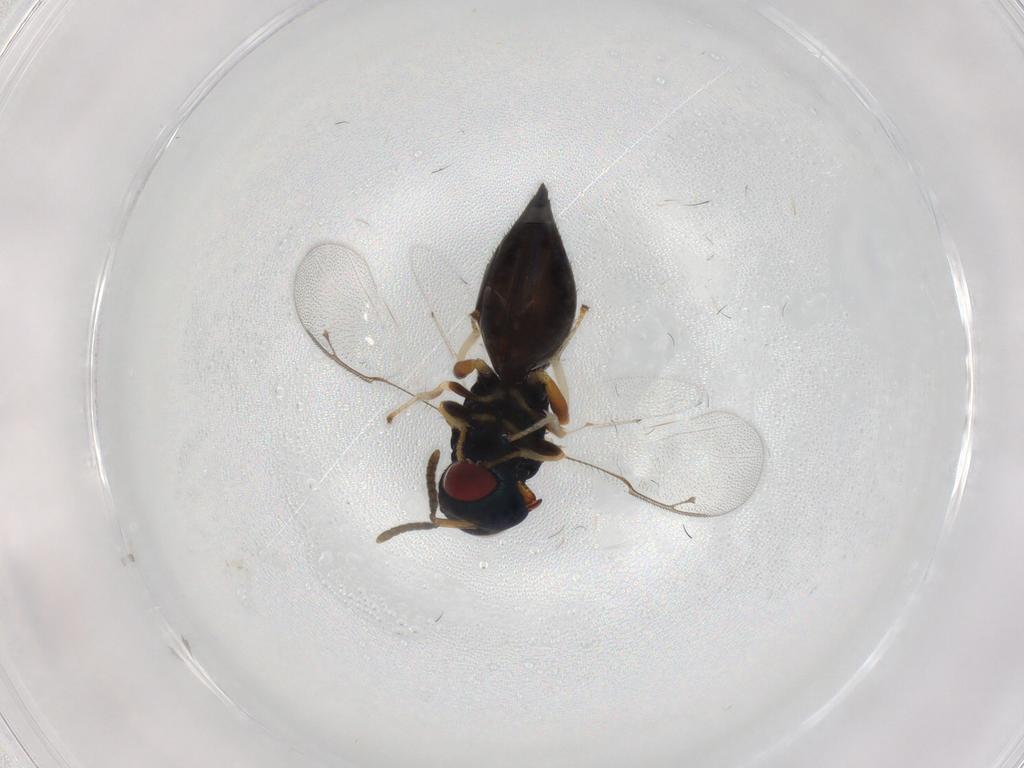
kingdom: Animalia
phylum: Arthropoda
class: Insecta
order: Hymenoptera
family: Pteromalidae
